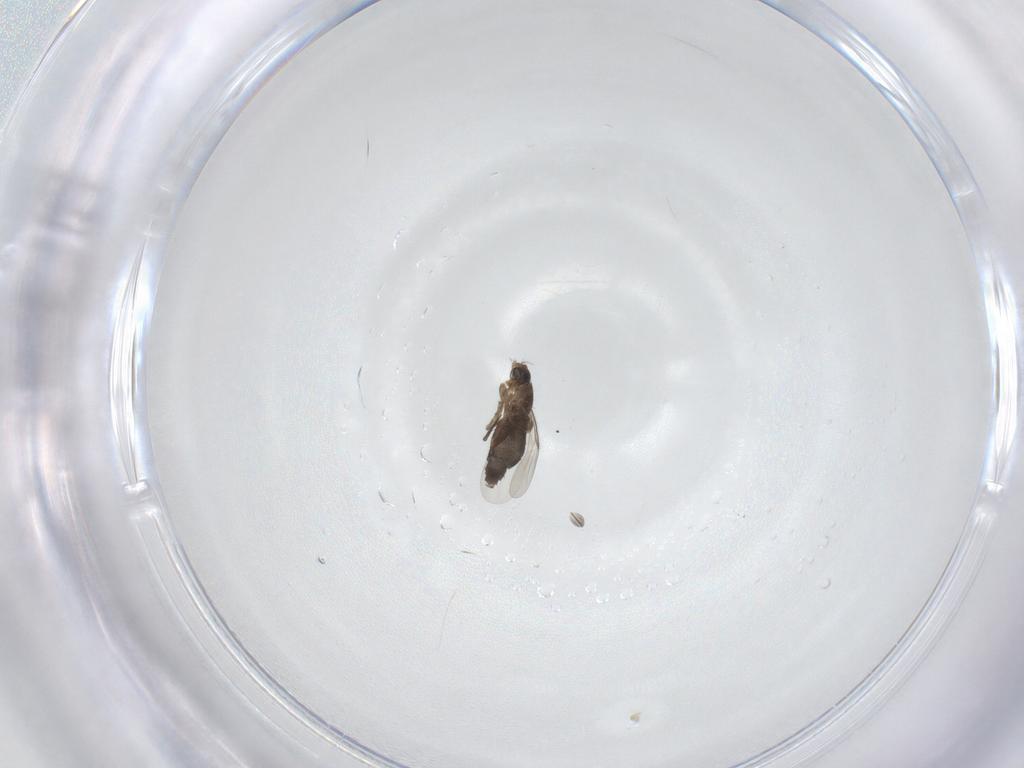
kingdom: Animalia
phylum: Arthropoda
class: Insecta
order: Diptera
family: Phoridae
